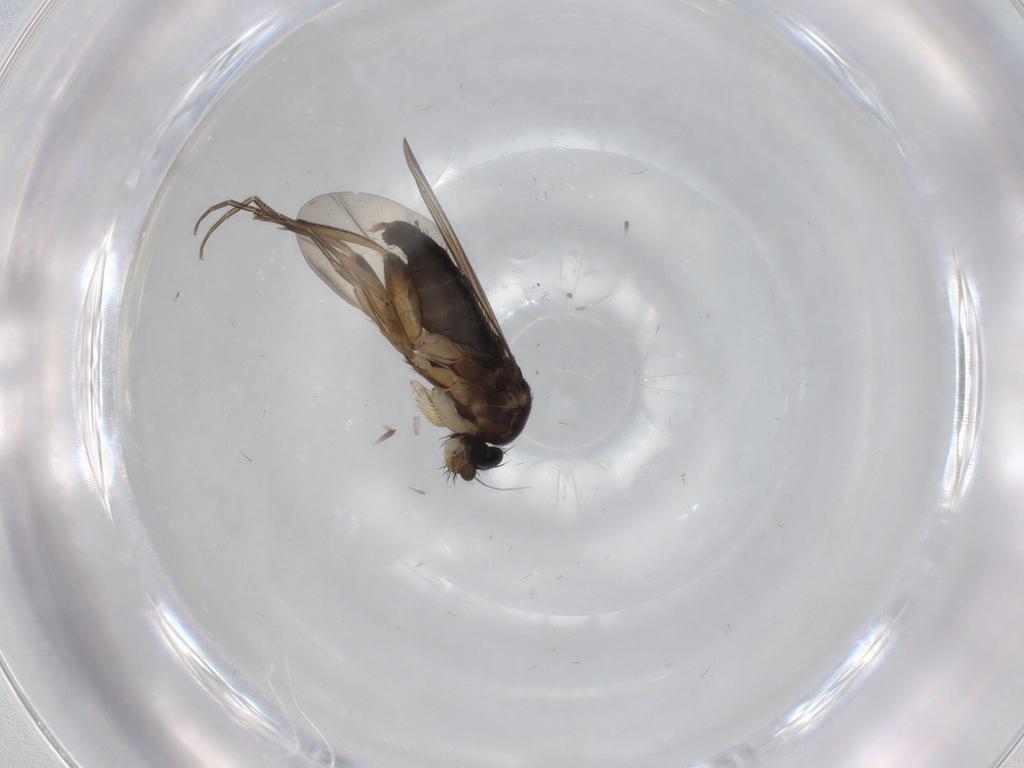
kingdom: Animalia
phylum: Arthropoda
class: Insecta
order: Diptera
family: Phoridae
